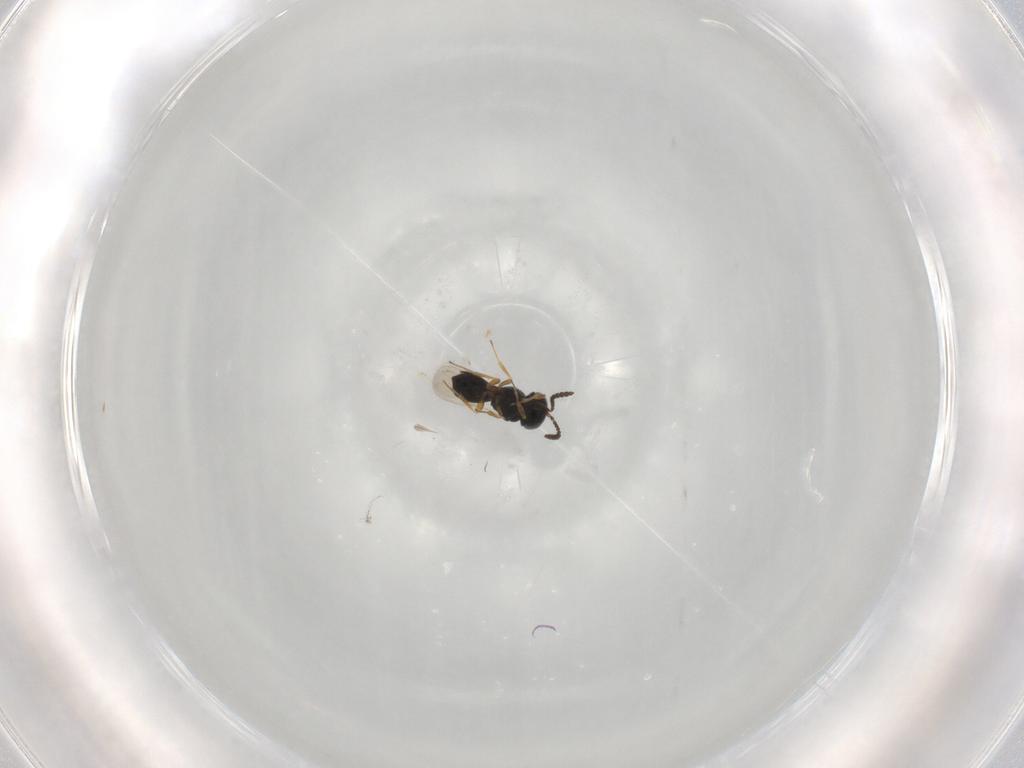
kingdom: Animalia
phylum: Arthropoda
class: Insecta
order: Hymenoptera
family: Scelionidae
